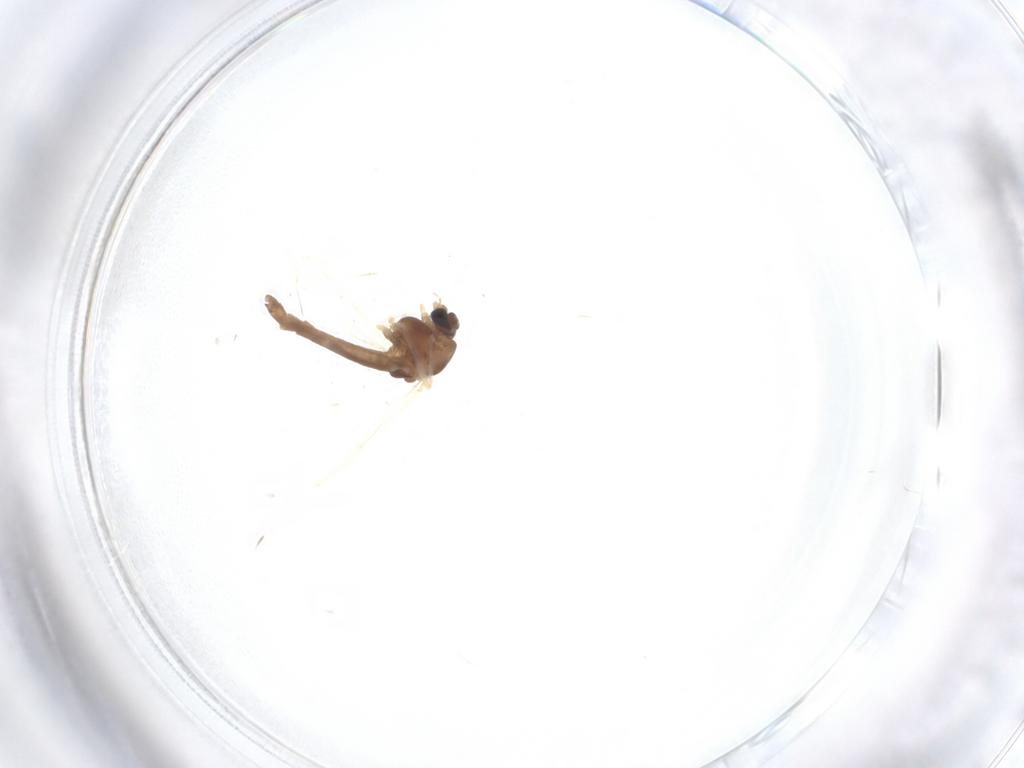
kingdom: Animalia
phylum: Arthropoda
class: Insecta
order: Diptera
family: Chironomidae
